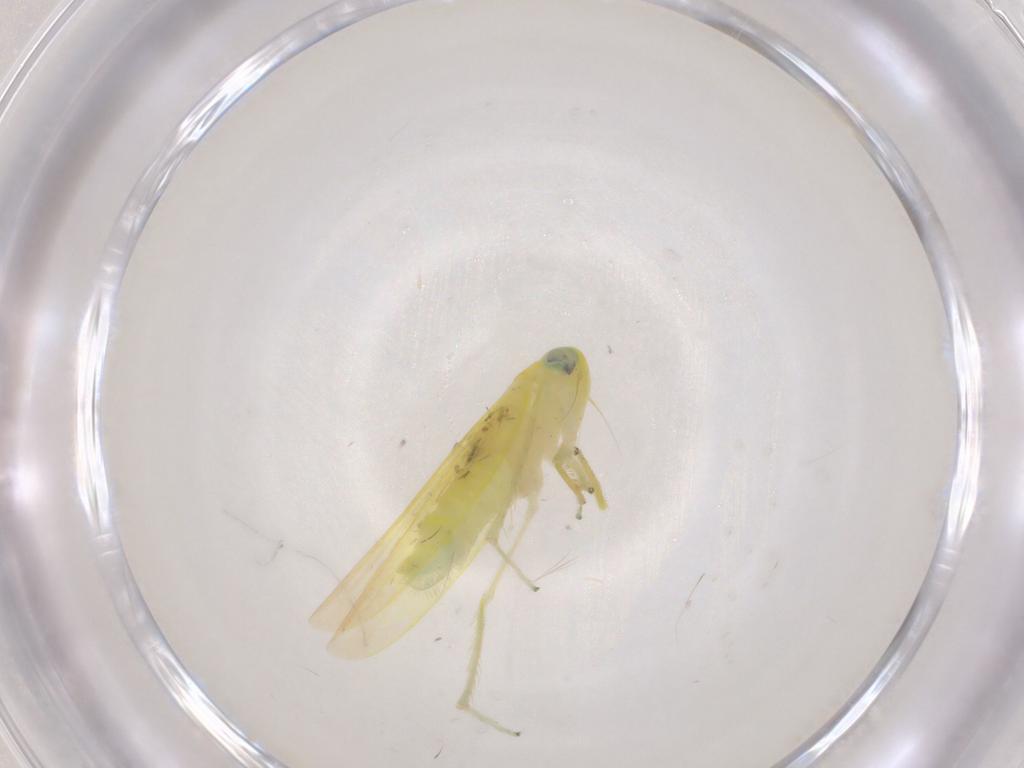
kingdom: Animalia
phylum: Arthropoda
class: Insecta
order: Hemiptera
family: Cicadellidae
